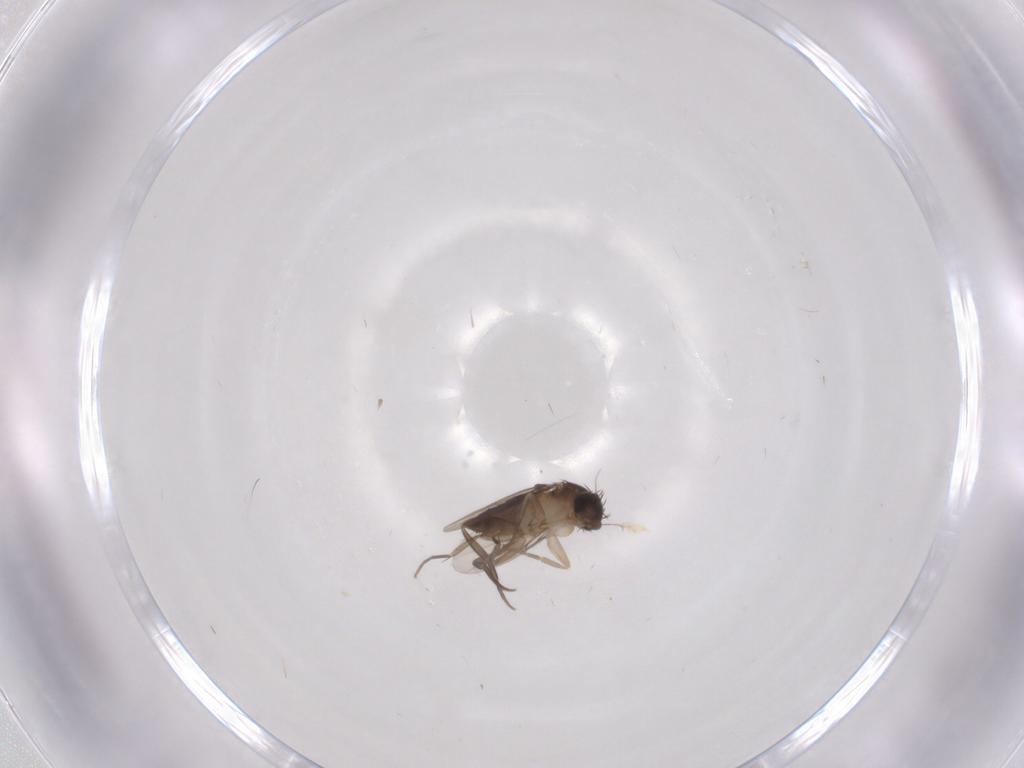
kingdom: Animalia
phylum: Arthropoda
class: Insecta
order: Diptera
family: Phoridae
